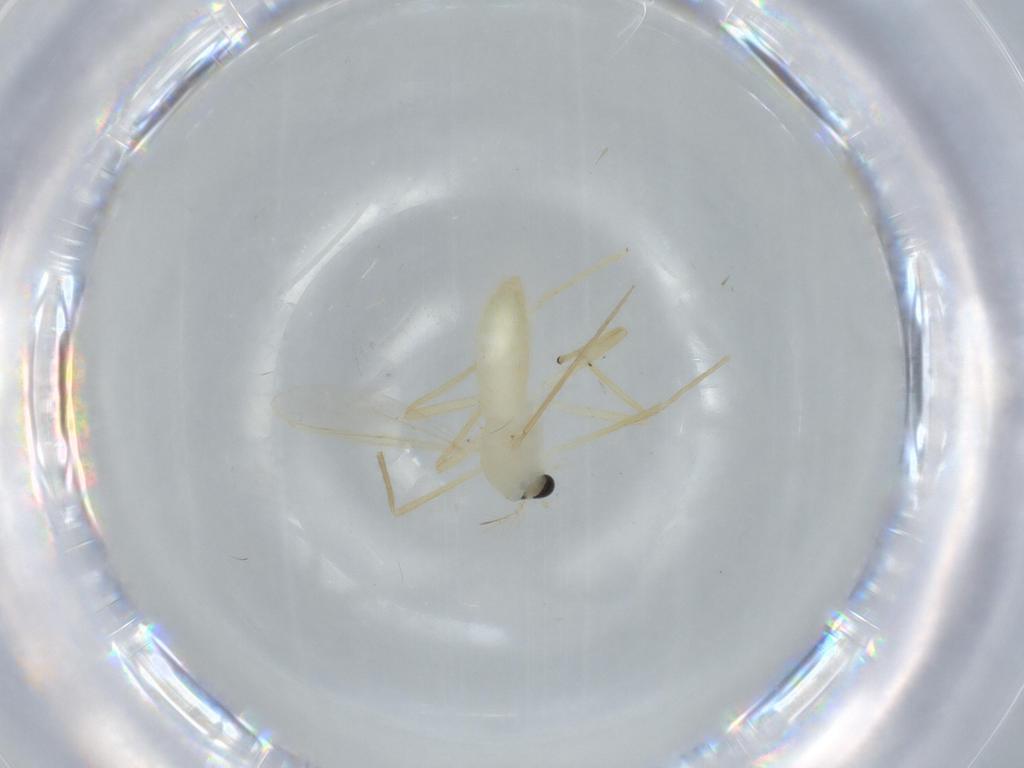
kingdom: Animalia
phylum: Arthropoda
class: Insecta
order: Diptera
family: Chironomidae
